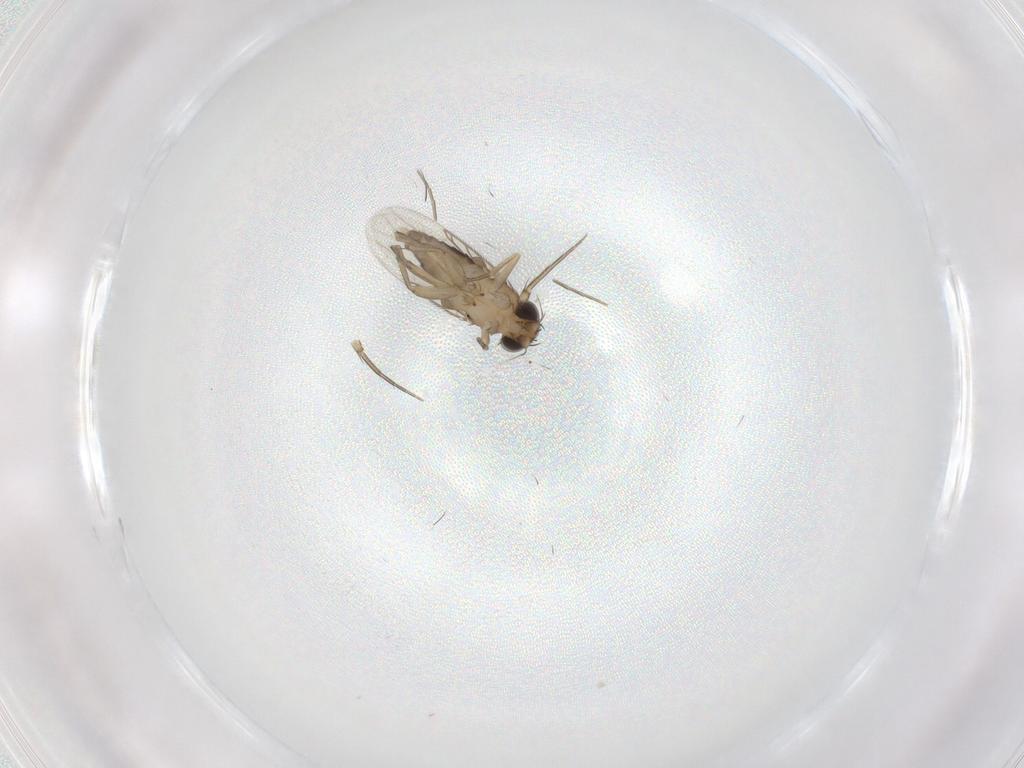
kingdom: Animalia
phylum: Arthropoda
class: Insecta
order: Diptera
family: Phoridae
